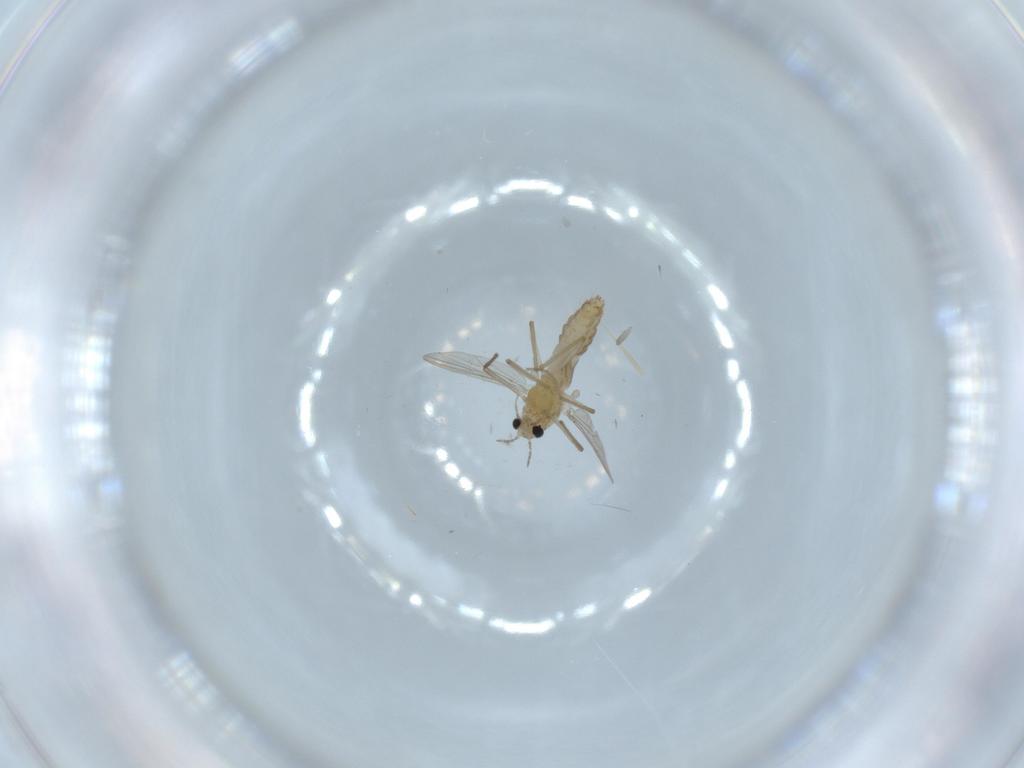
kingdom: Animalia
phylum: Arthropoda
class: Insecta
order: Diptera
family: Chironomidae
